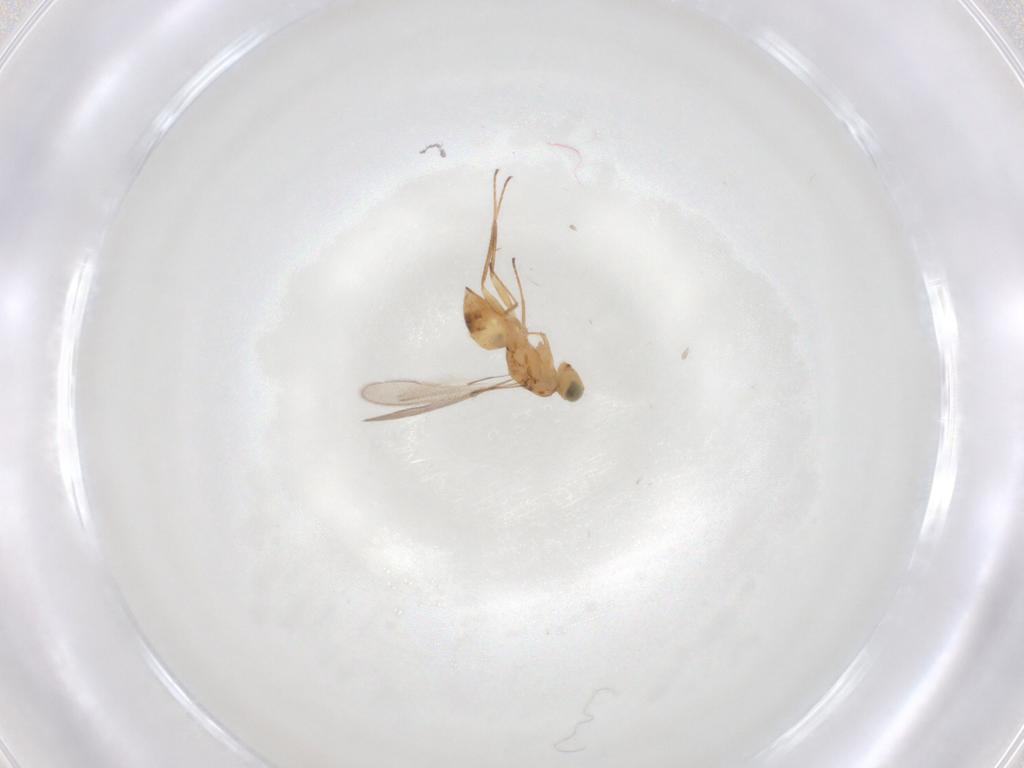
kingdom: Animalia
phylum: Arthropoda
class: Insecta
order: Hymenoptera
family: Mymaridae
